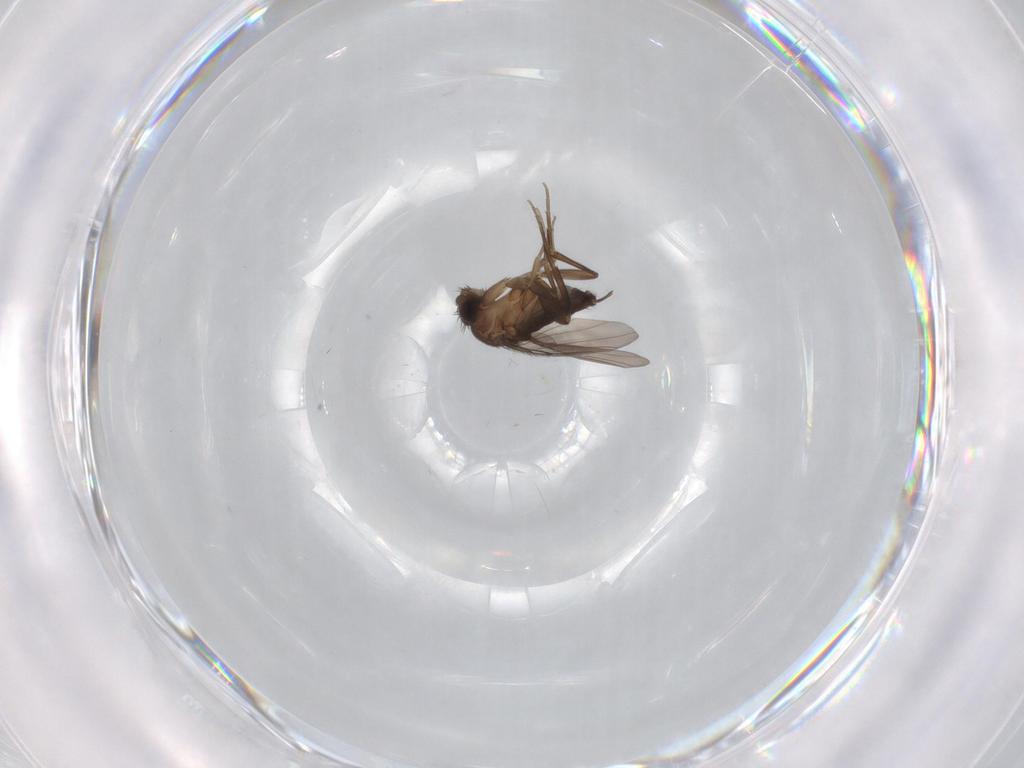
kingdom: Animalia
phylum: Arthropoda
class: Insecta
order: Diptera
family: Phoridae
